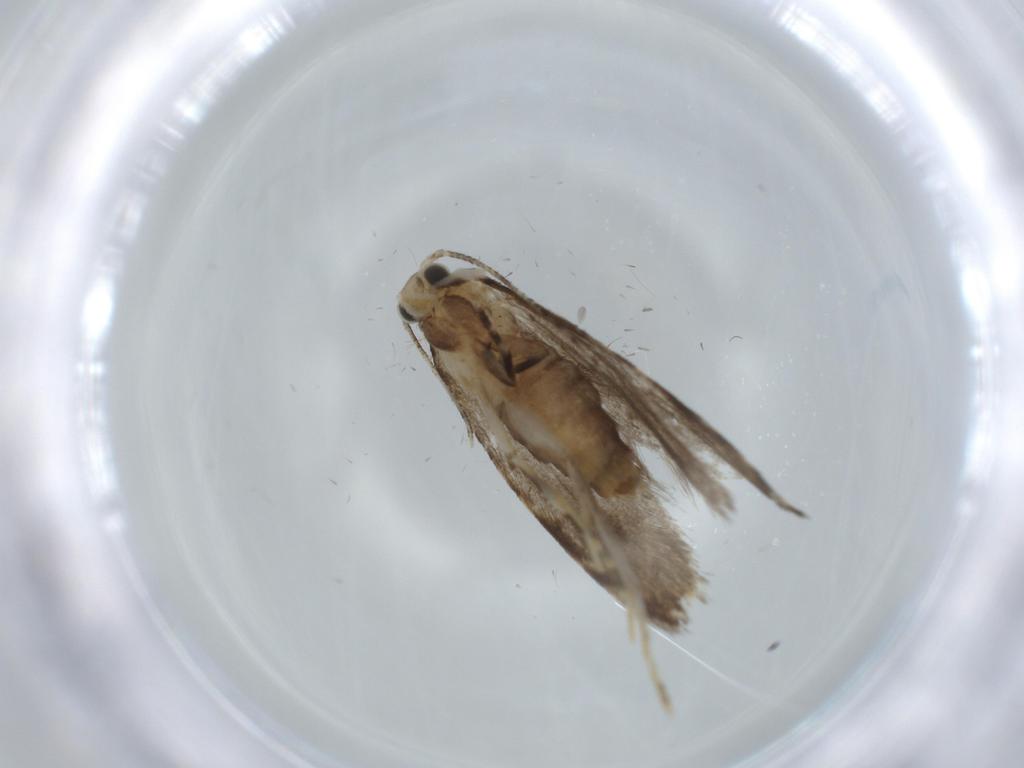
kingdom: Animalia
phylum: Arthropoda
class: Insecta
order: Lepidoptera
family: Tineidae
